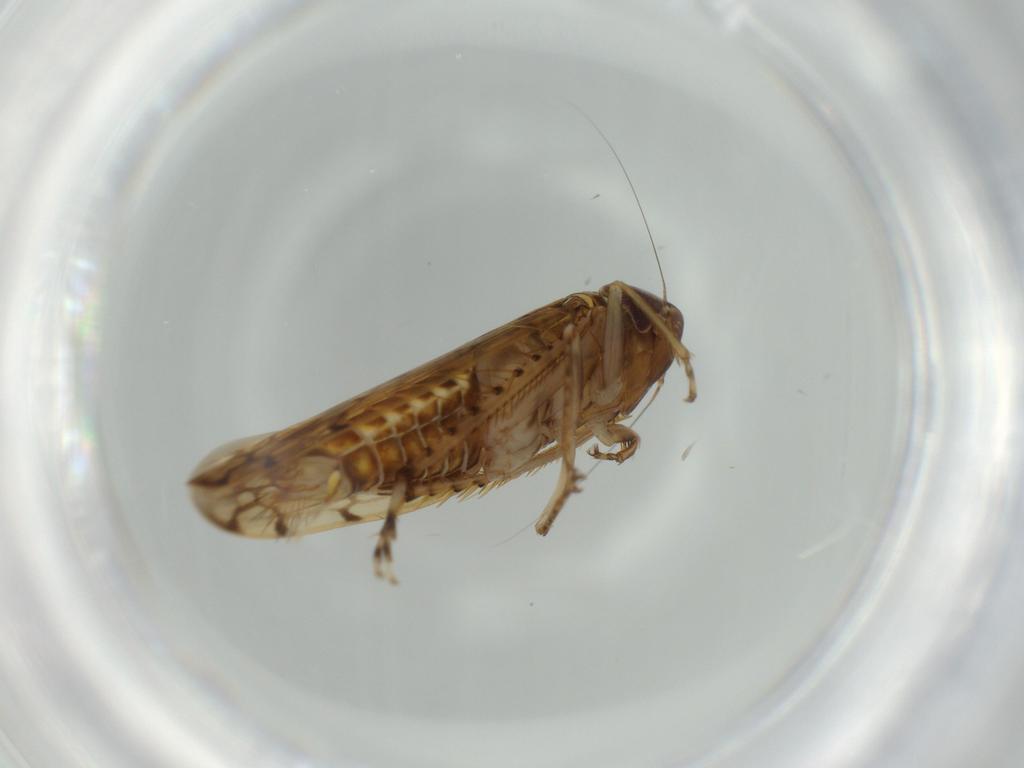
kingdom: Animalia
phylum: Arthropoda
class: Insecta
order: Hemiptera
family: Cicadellidae
